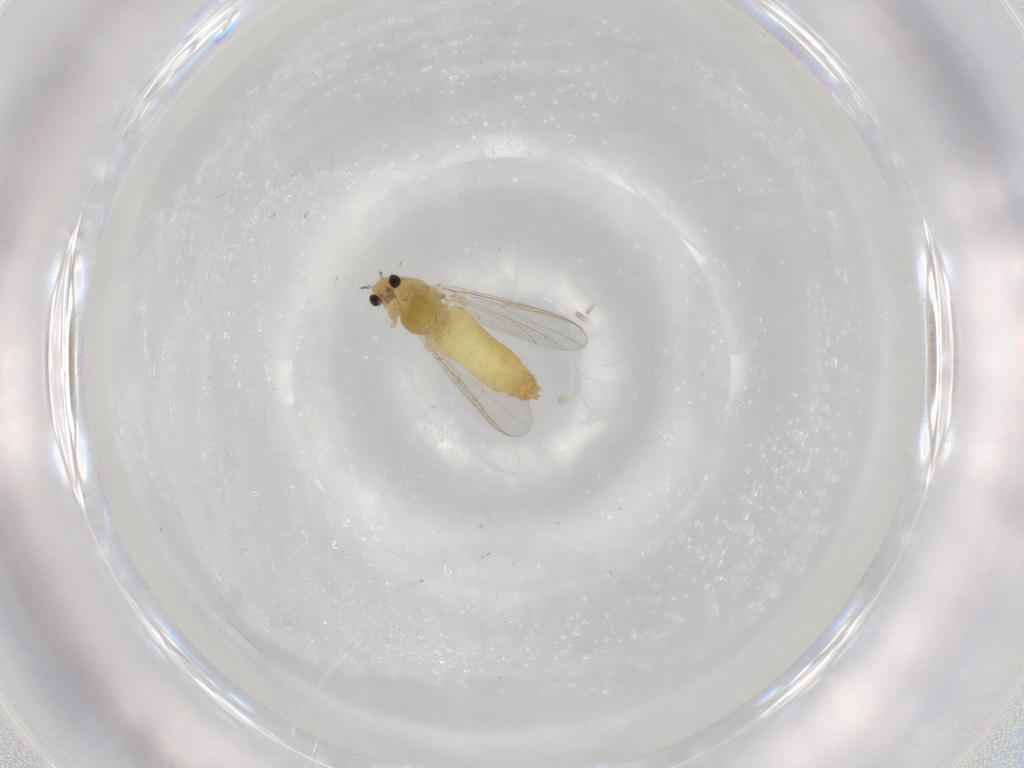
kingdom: Animalia
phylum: Arthropoda
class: Insecta
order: Diptera
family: Chironomidae
